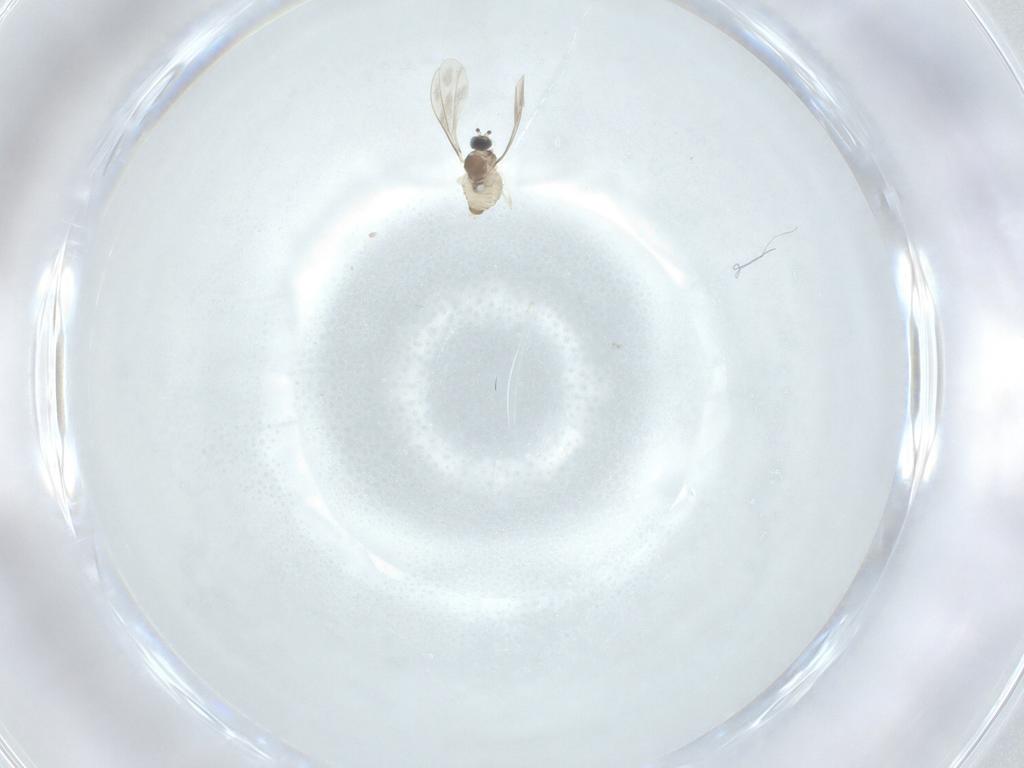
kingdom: Animalia
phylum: Arthropoda
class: Insecta
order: Diptera
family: Cecidomyiidae
